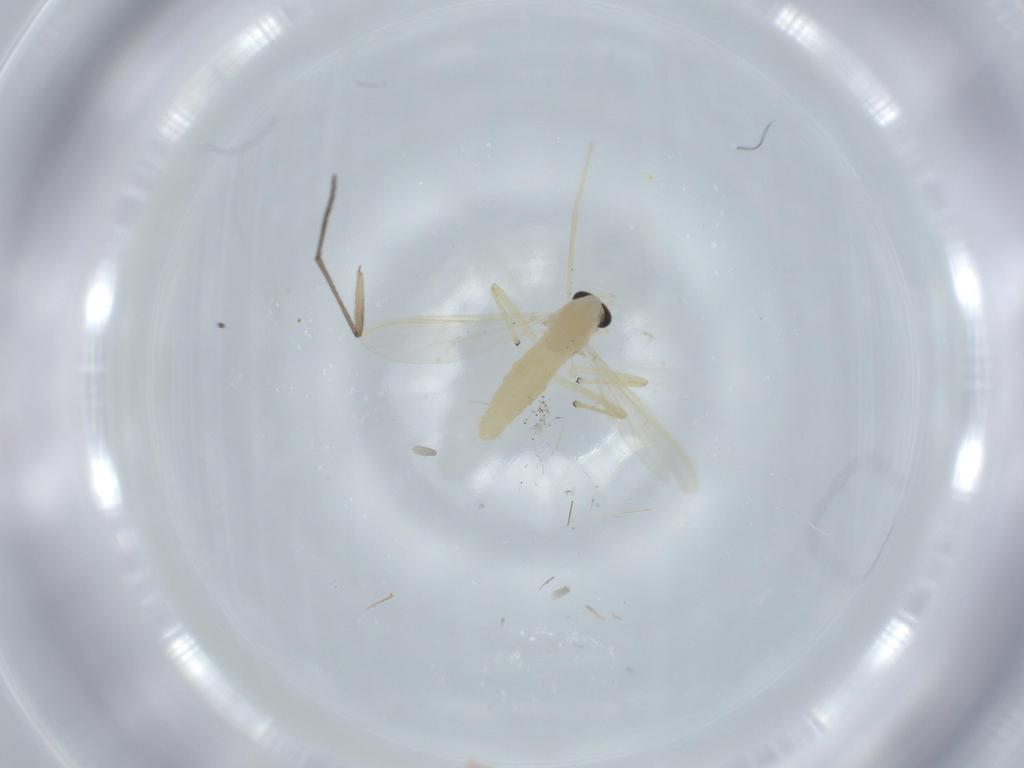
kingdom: Animalia
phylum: Arthropoda
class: Insecta
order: Diptera
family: Chironomidae
